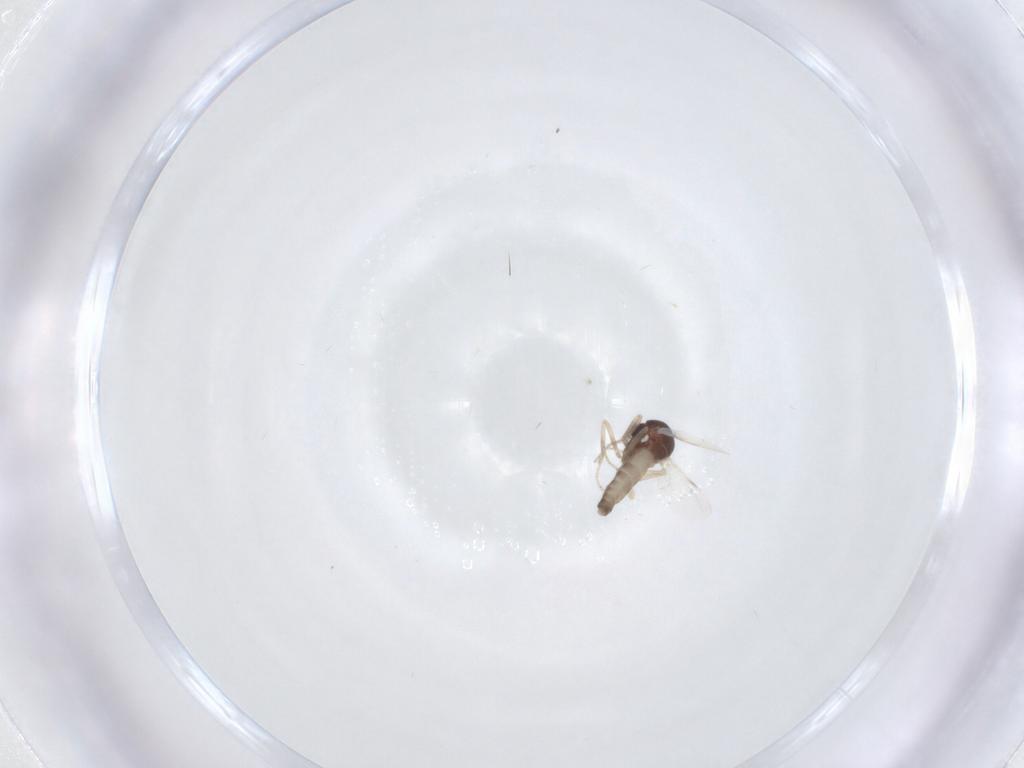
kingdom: Animalia
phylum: Arthropoda
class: Insecta
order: Diptera
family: Ceratopogonidae
